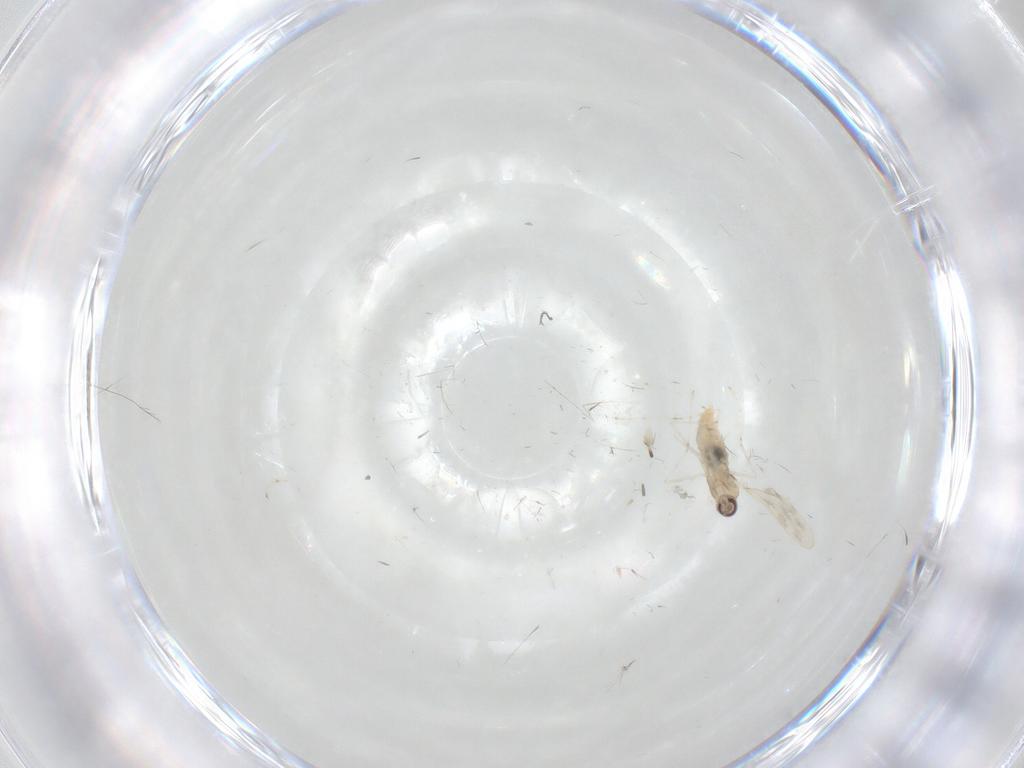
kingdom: Animalia
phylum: Arthropoda
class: Insecta
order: Diptera
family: Cecidomyiidae
